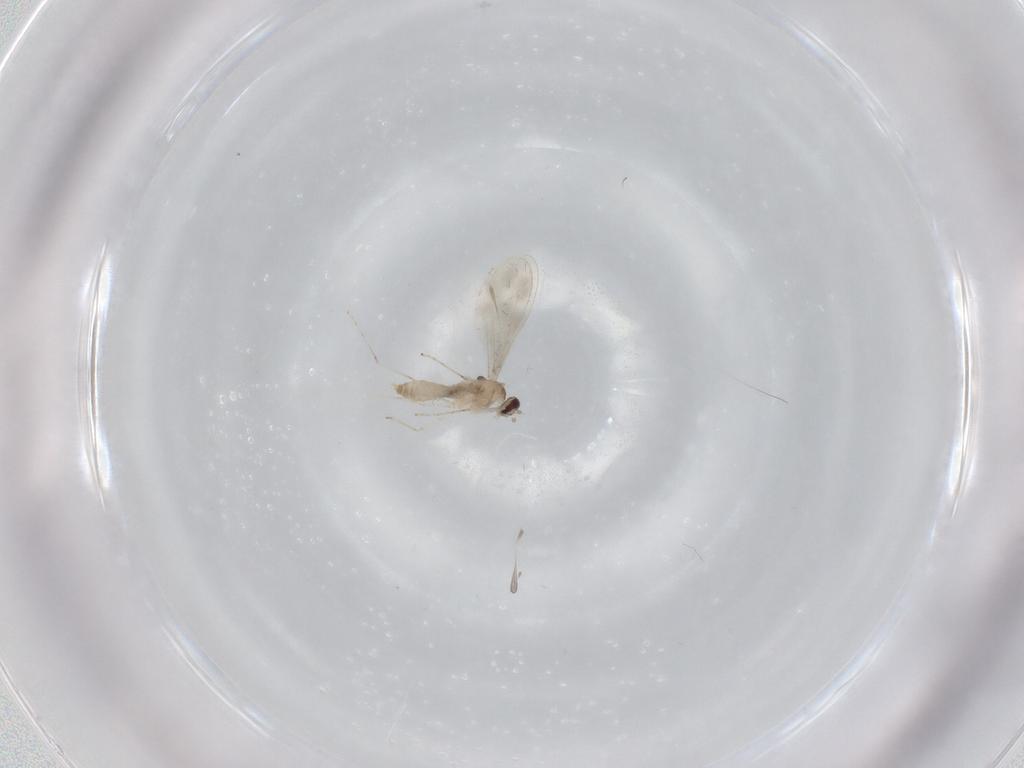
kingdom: Animalia
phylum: Arthropoda
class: Insecta
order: Diptera
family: Cecidomyiidae
